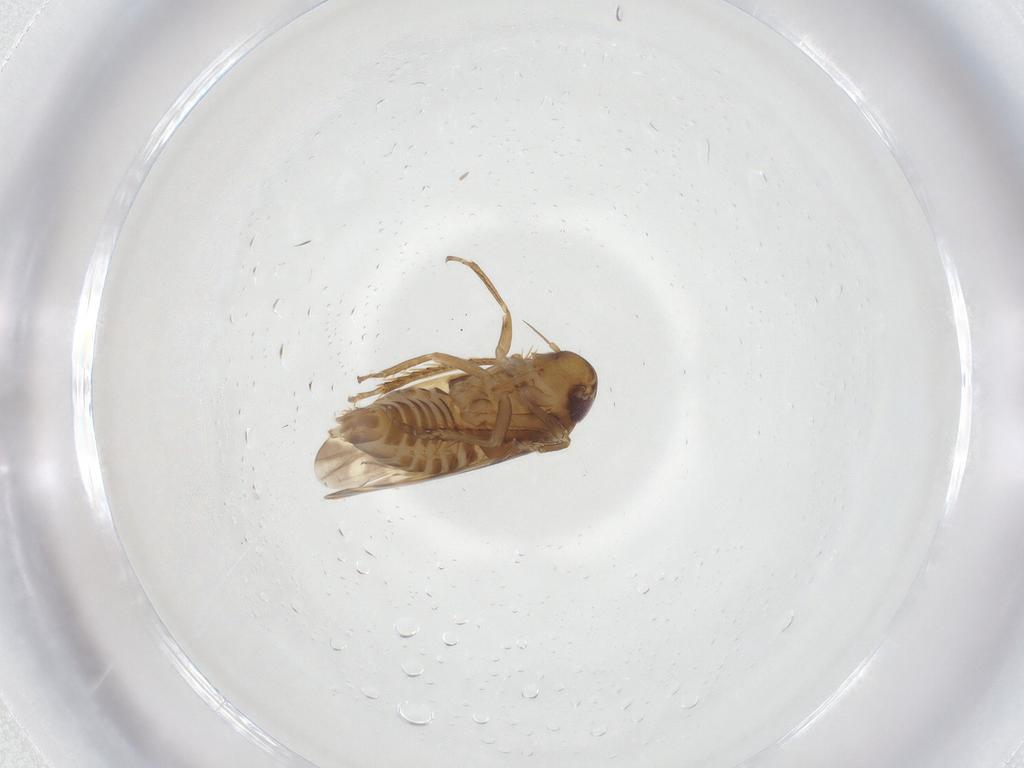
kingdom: Animalia
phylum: Arthropoda
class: Insecta
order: Hemiptera
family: Cicadellidae
